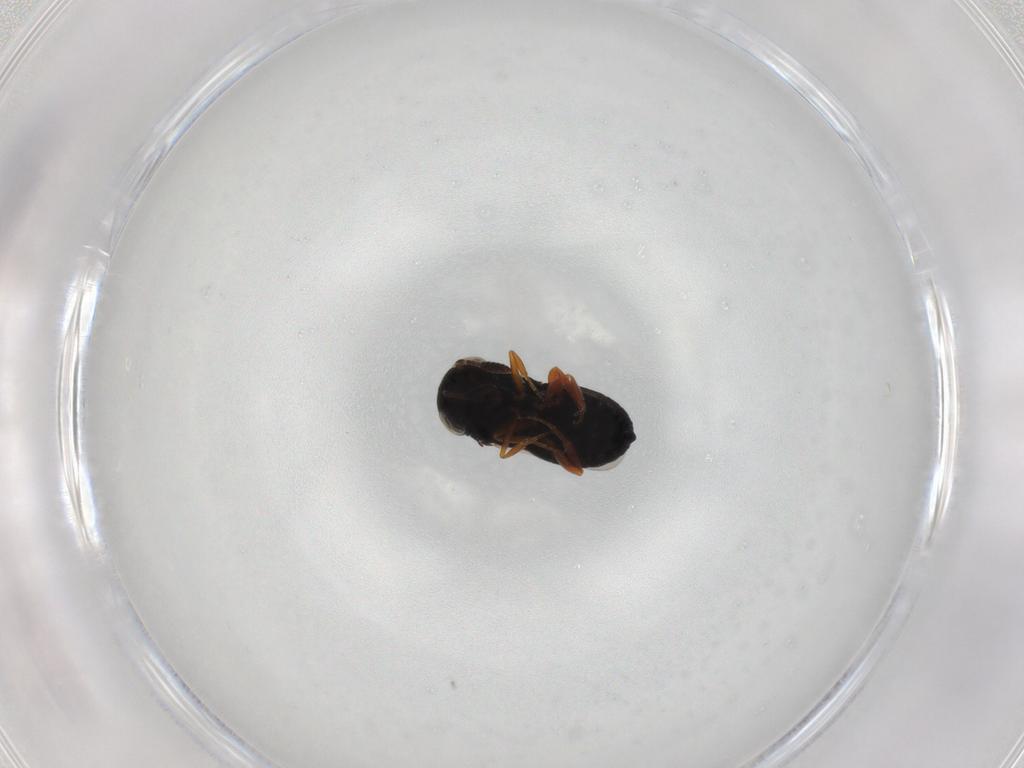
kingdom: Animalia
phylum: Arthropoda
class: Insecta
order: Hymenoptera
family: Scelionidae
